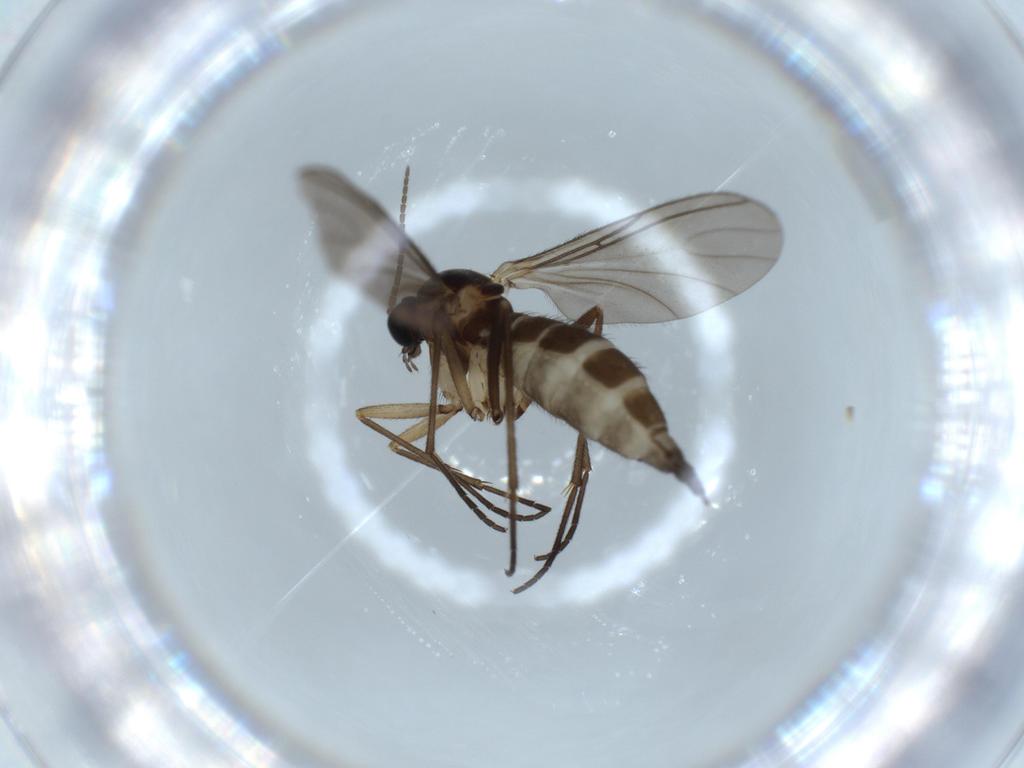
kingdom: Animalia
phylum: Arthropoda
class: Insecta
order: Diptera
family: Sciaridae
